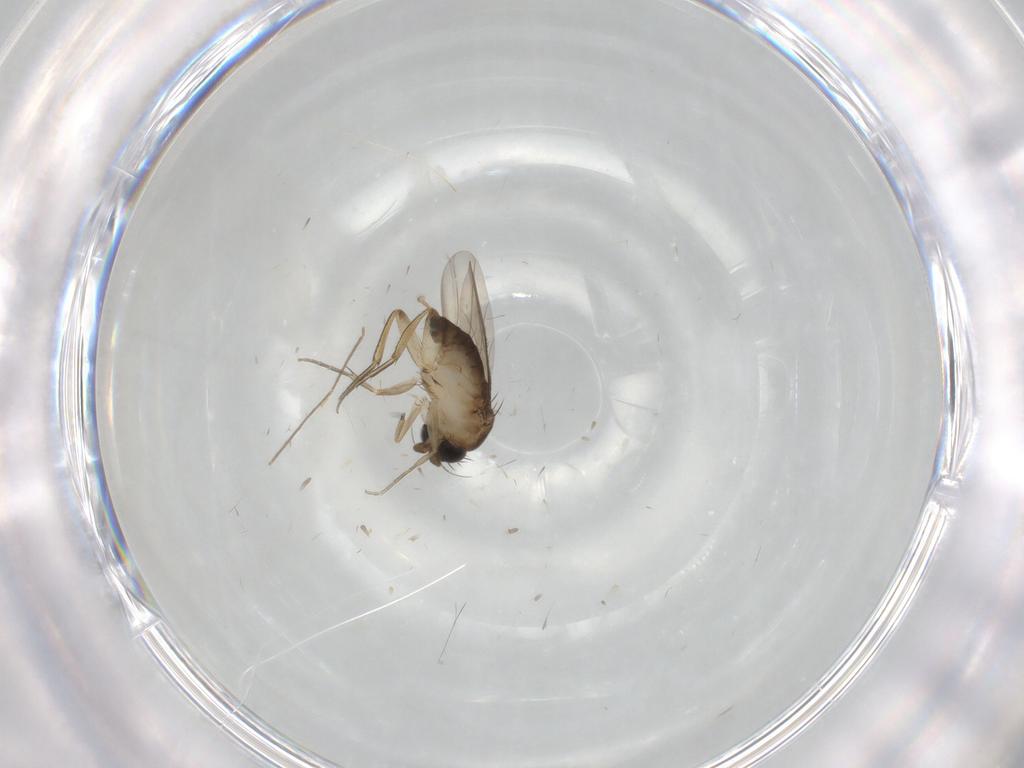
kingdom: Animalia
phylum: Arthropoda
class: Insecta
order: Diptera
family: Phoridae
